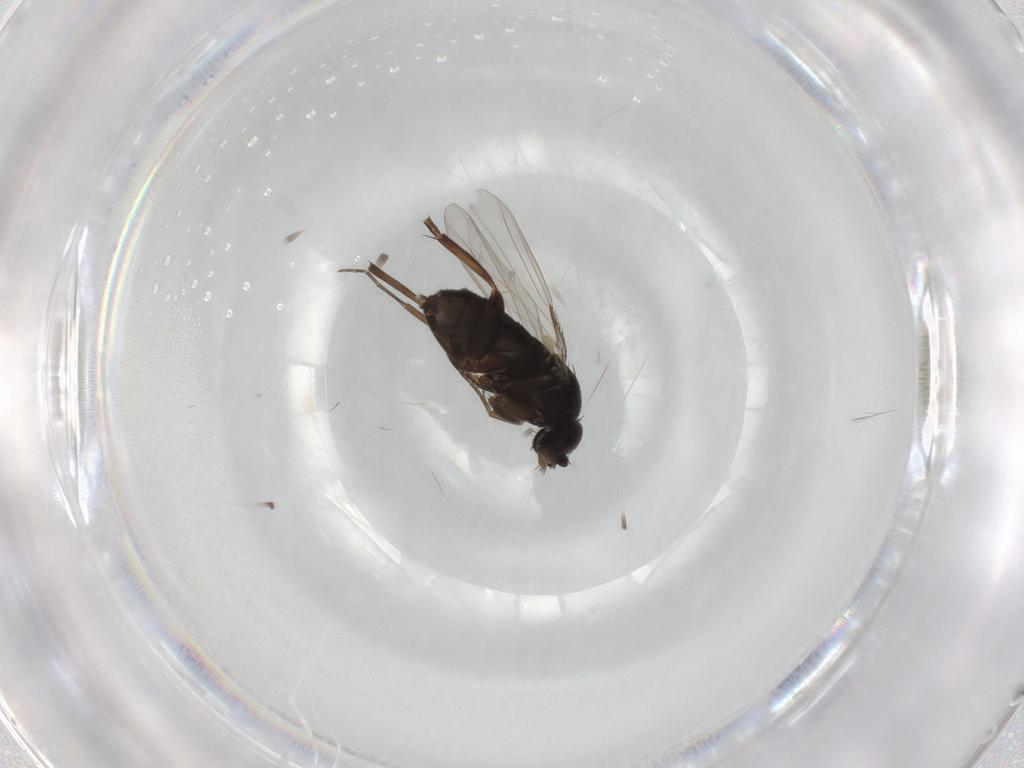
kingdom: Animalia
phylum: Arthropoda
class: Insecta
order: Diptera
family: Phoridae
